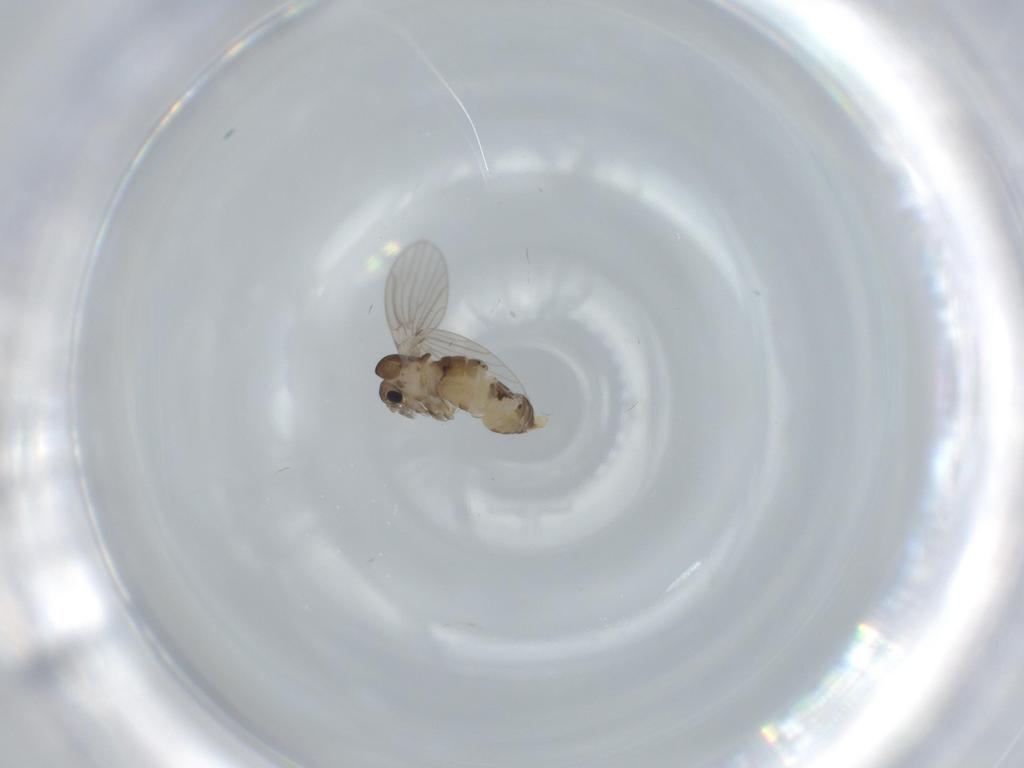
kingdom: Animalia
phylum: Arthropoda
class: Insecta
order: Diptera
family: Psychodidae
